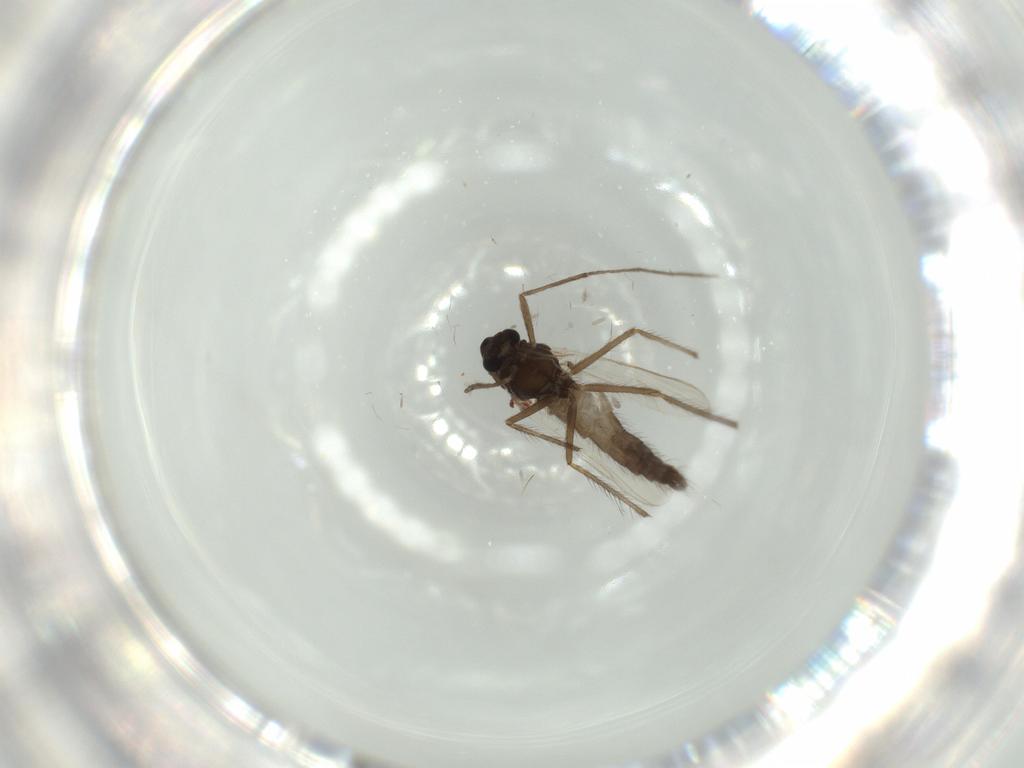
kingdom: Animalia
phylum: Arthropoda
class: Insecta
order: Diptera
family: Chironomidae
